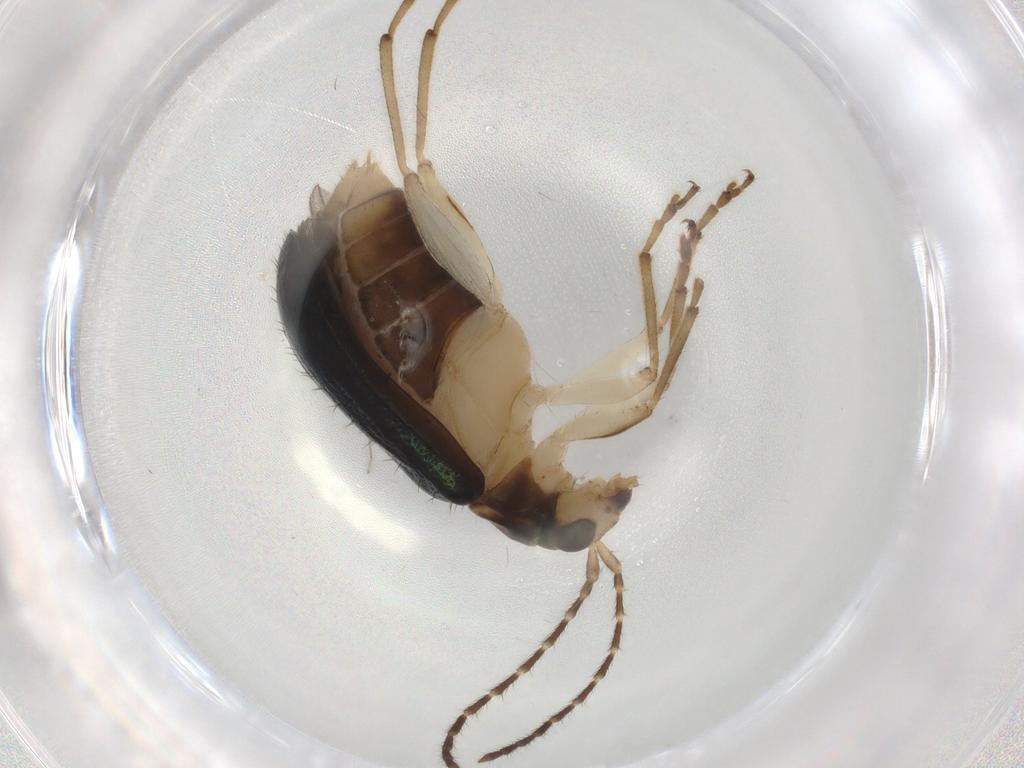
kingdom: Animalia
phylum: Arthropoda
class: Insecta
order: Coleoptera
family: Chrysomelidae
